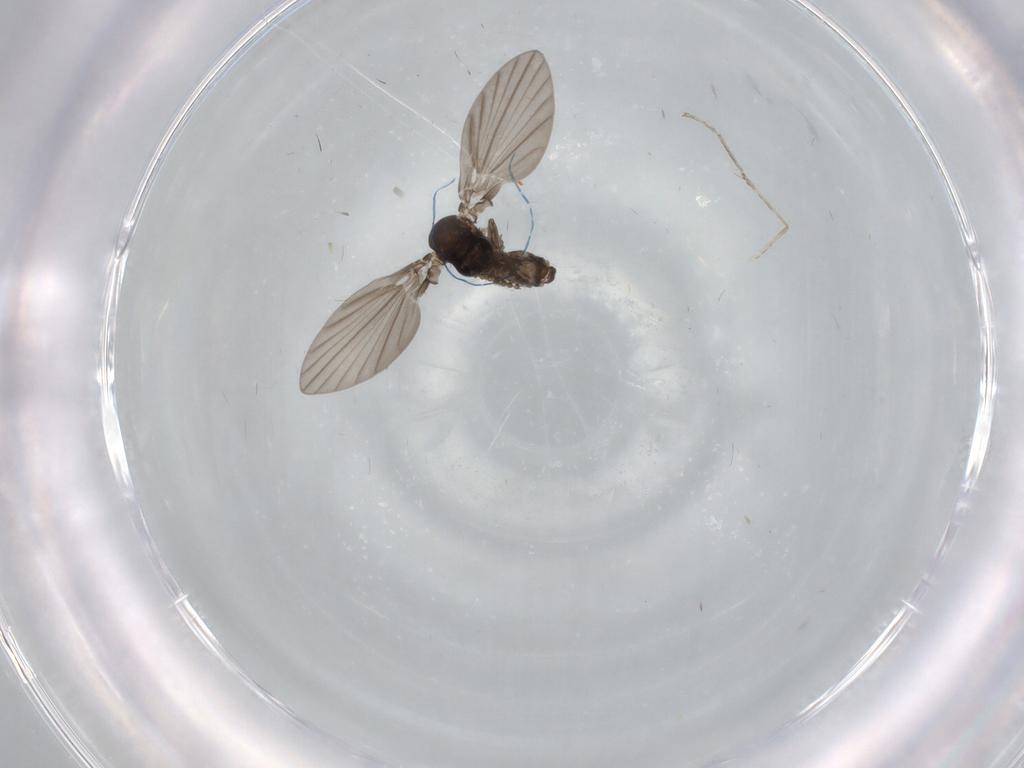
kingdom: Animalia
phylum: Arthropoda
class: Insecta
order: Diptera
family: Psychodidae
